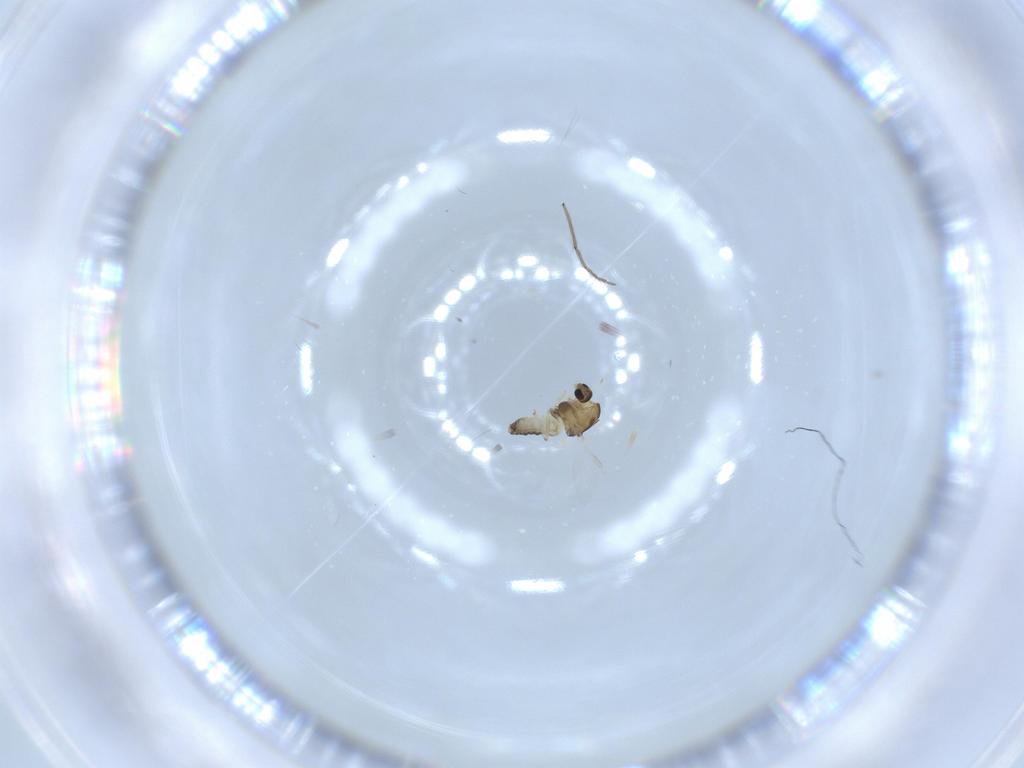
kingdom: Animalia
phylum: Arthropoda
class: Insecta
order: Diptera
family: Chironomidae
